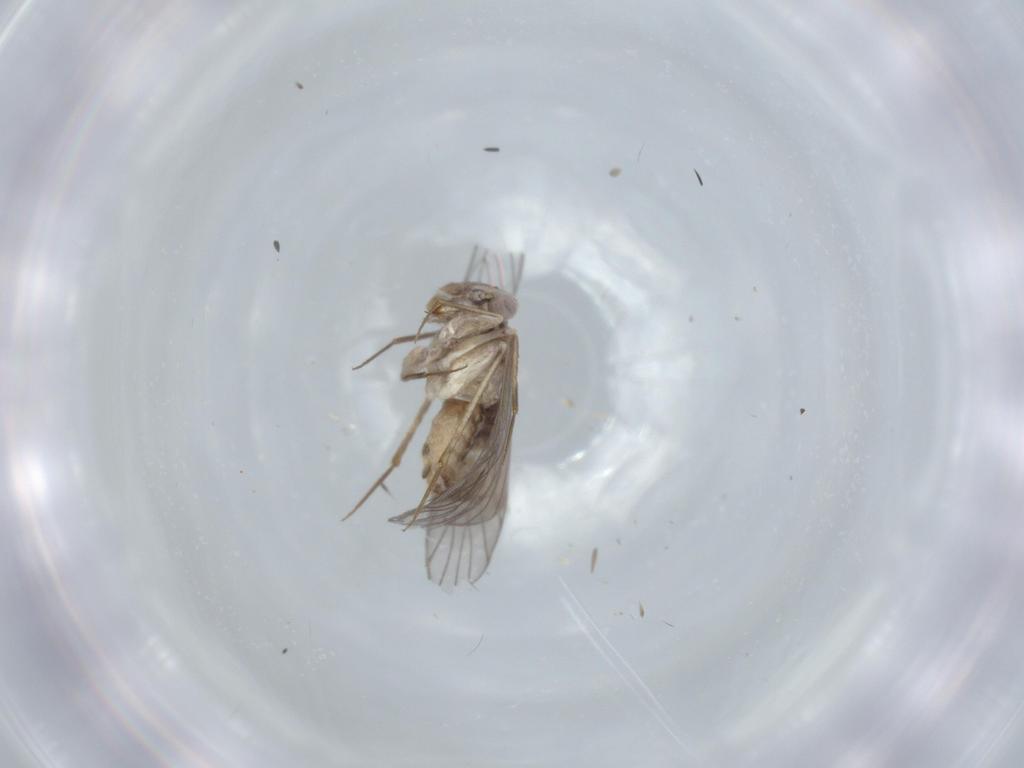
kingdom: Animalia
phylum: Arthropoda
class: Insecta
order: Psocodea
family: Lepidopsocidae
